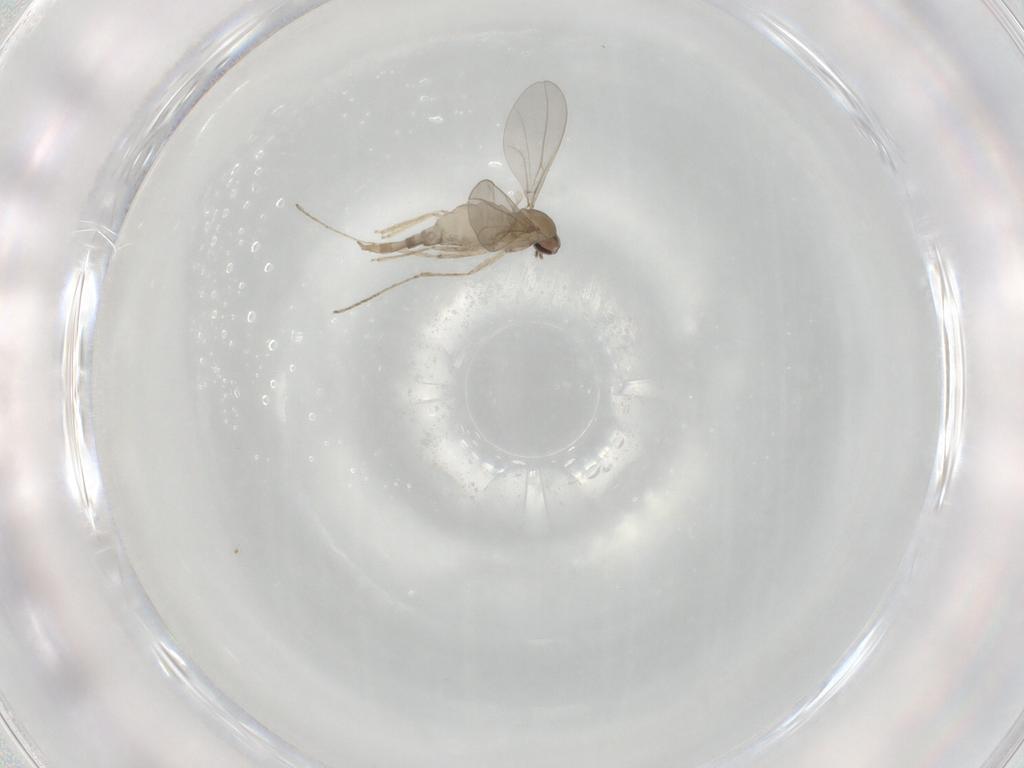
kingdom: Animalia
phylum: Arthropoda
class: Insecta
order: Diptera
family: Cecidomyiidae
